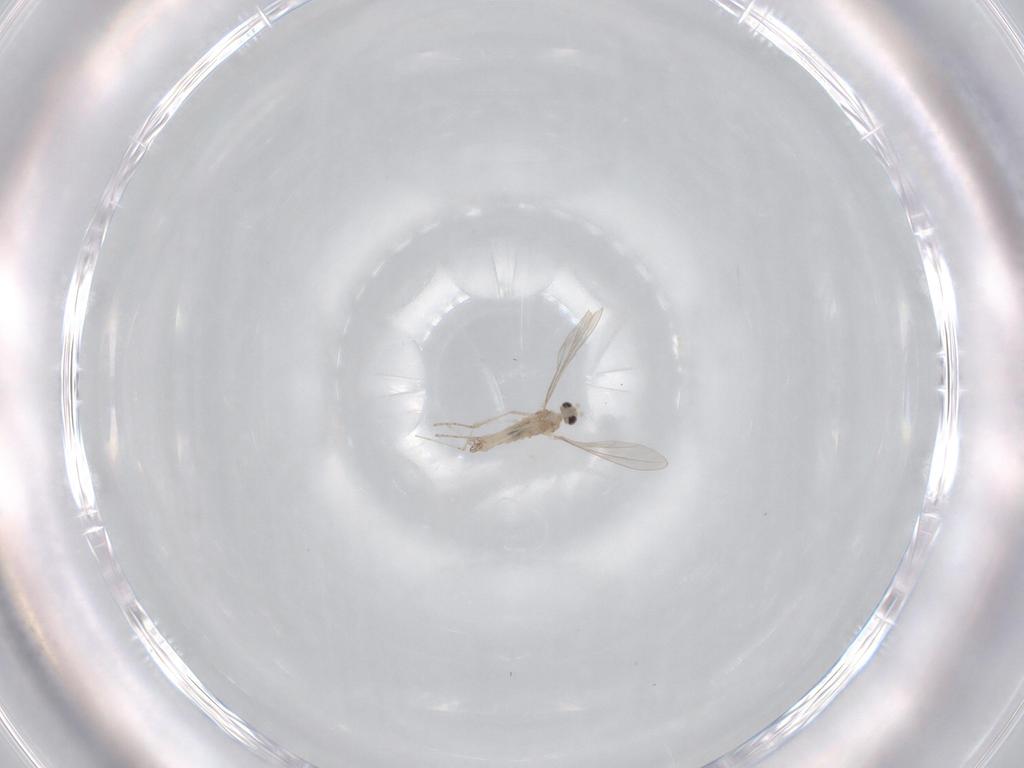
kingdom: Animalia
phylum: Arthropoda
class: Insecta
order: Diptera
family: Cecidomyiidae
